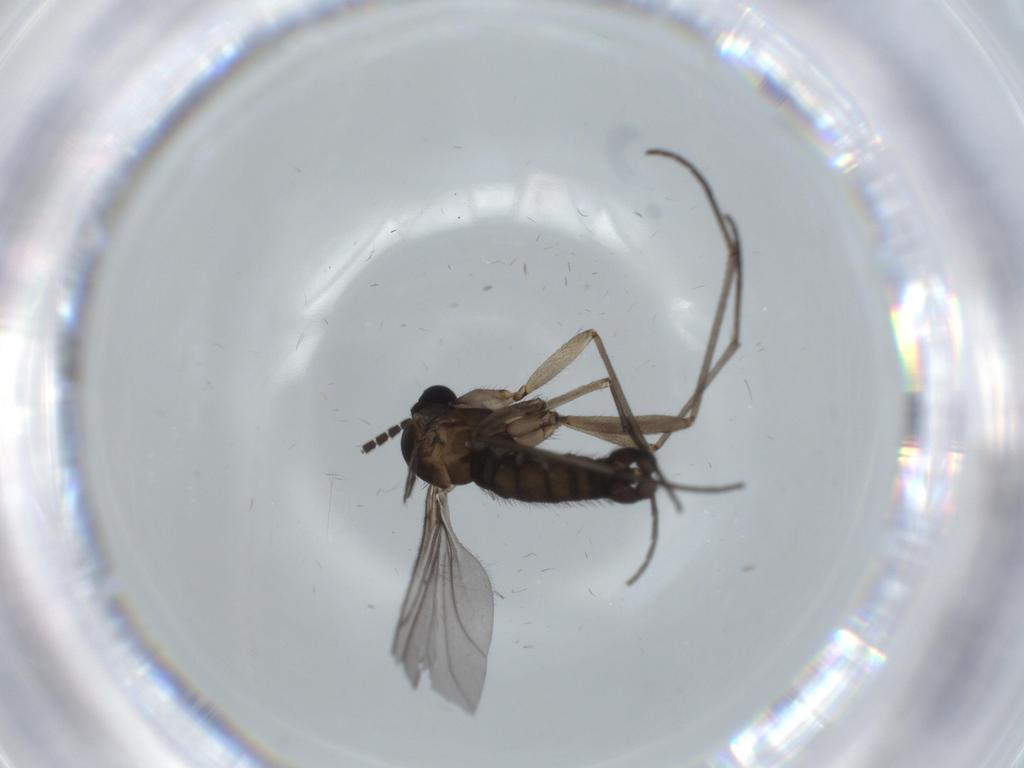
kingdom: Animalia
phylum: Arthropoda
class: Insecta
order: Diptera
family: Sciaridae
